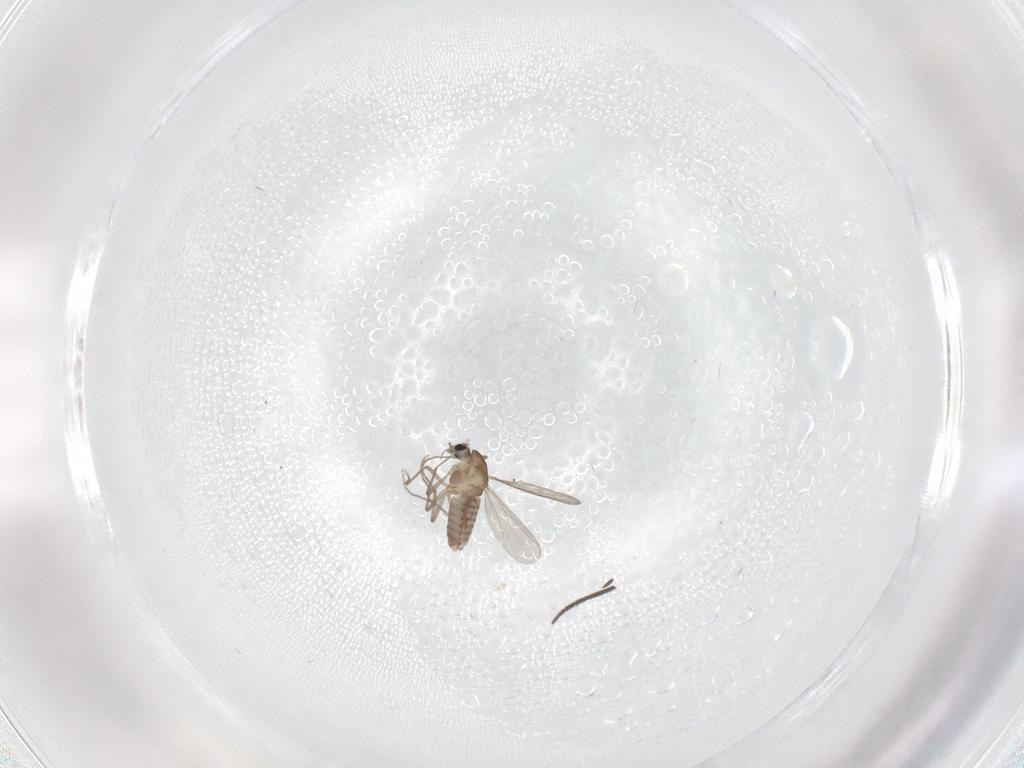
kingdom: Animalia
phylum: Arthropoda
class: Insecta
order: Diptera
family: Chironomidae
